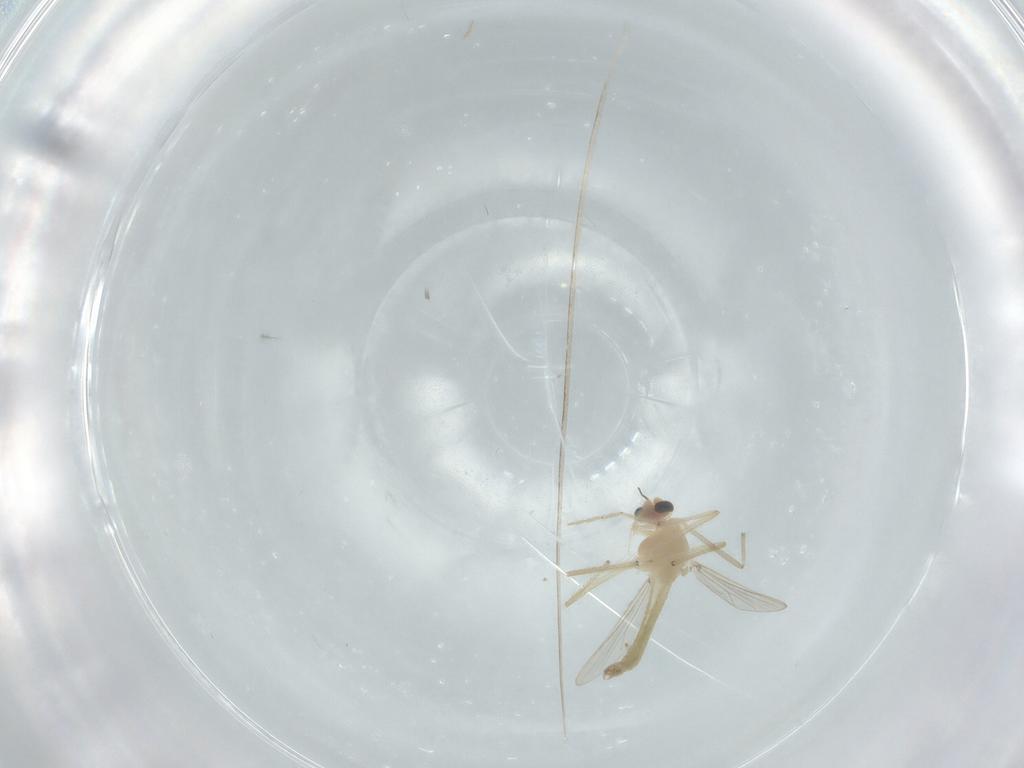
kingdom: Animalia
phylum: Arthropoda
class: Insecta
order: Diptera
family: Chironomidae
